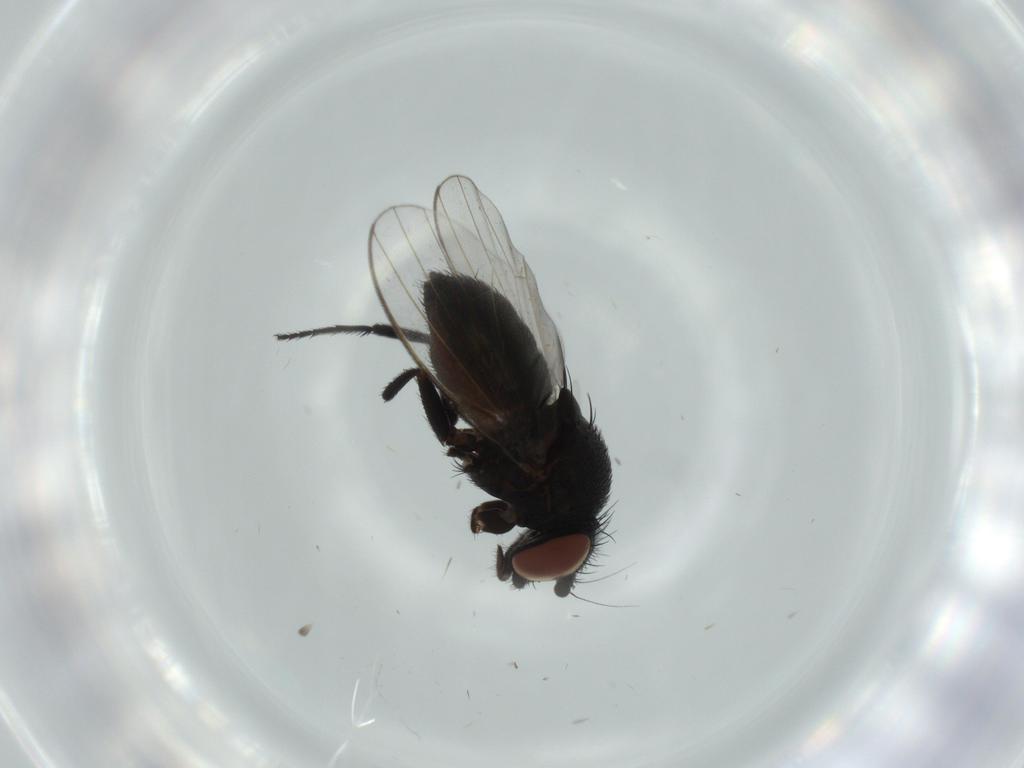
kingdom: Animalia
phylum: Arthropoda
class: Insecta
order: Diptera
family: Milichiidae
